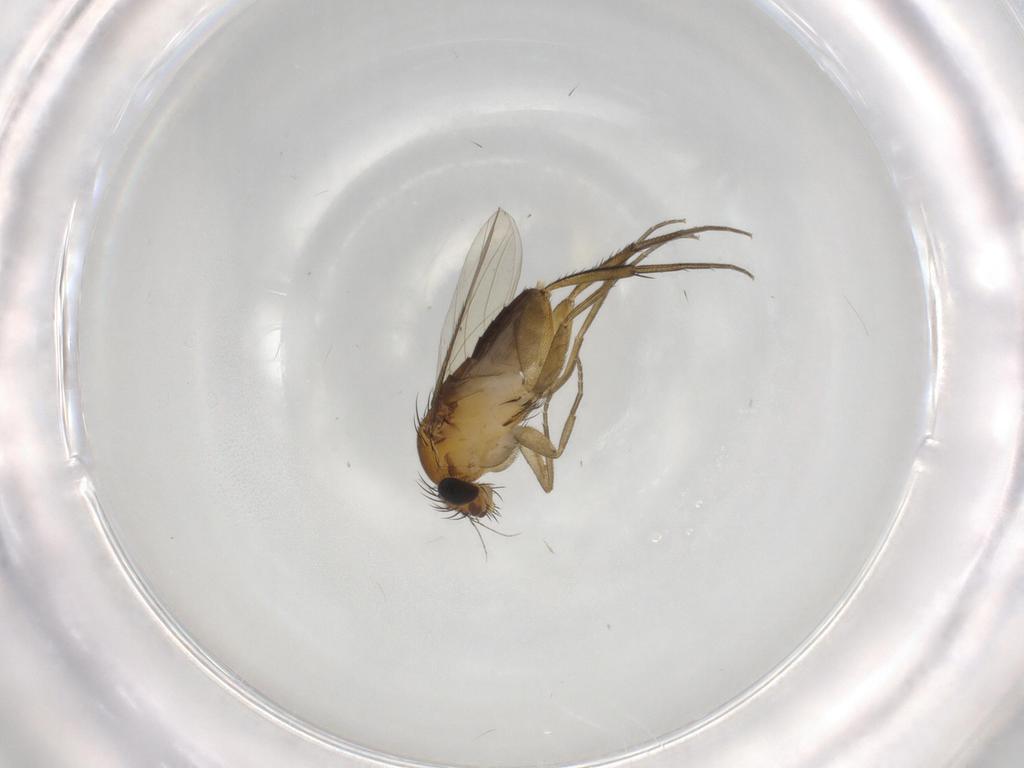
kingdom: Animalia
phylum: Arthropoda
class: Insecta
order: Diptera
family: Phoridae
